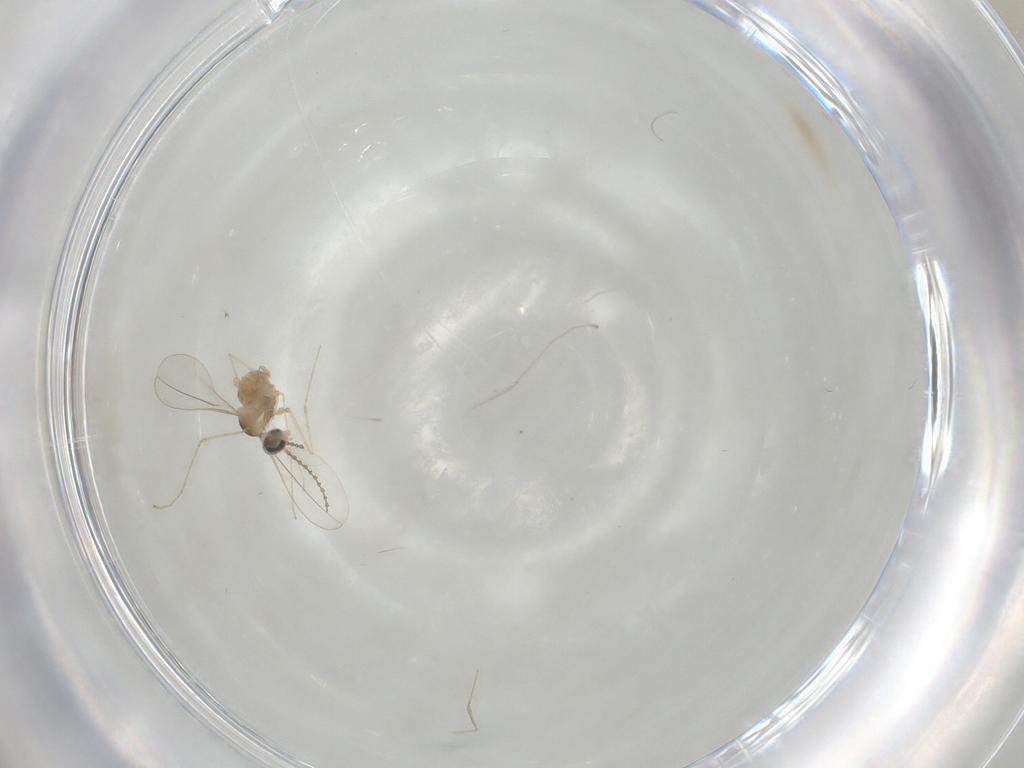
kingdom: Animalia
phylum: Arthropoda
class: Insecta
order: Diptera
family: Cecidomyiidae
